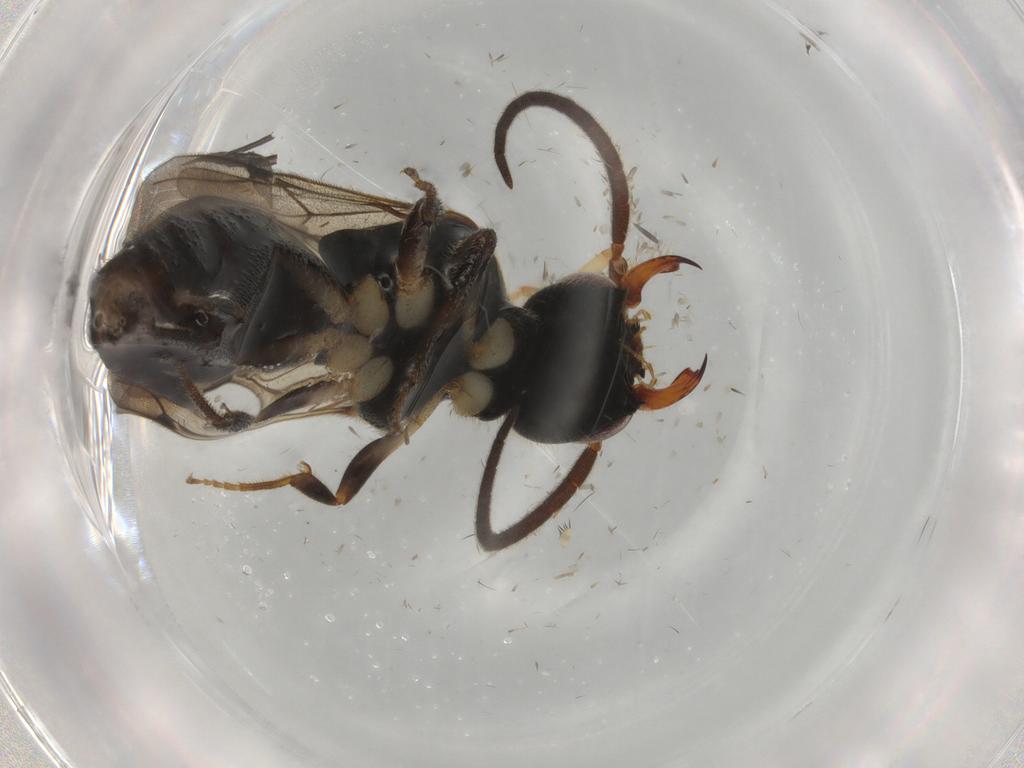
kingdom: Animalia
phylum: Arthropoda
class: Insecta
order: Hymenoptera
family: Bethylidae
